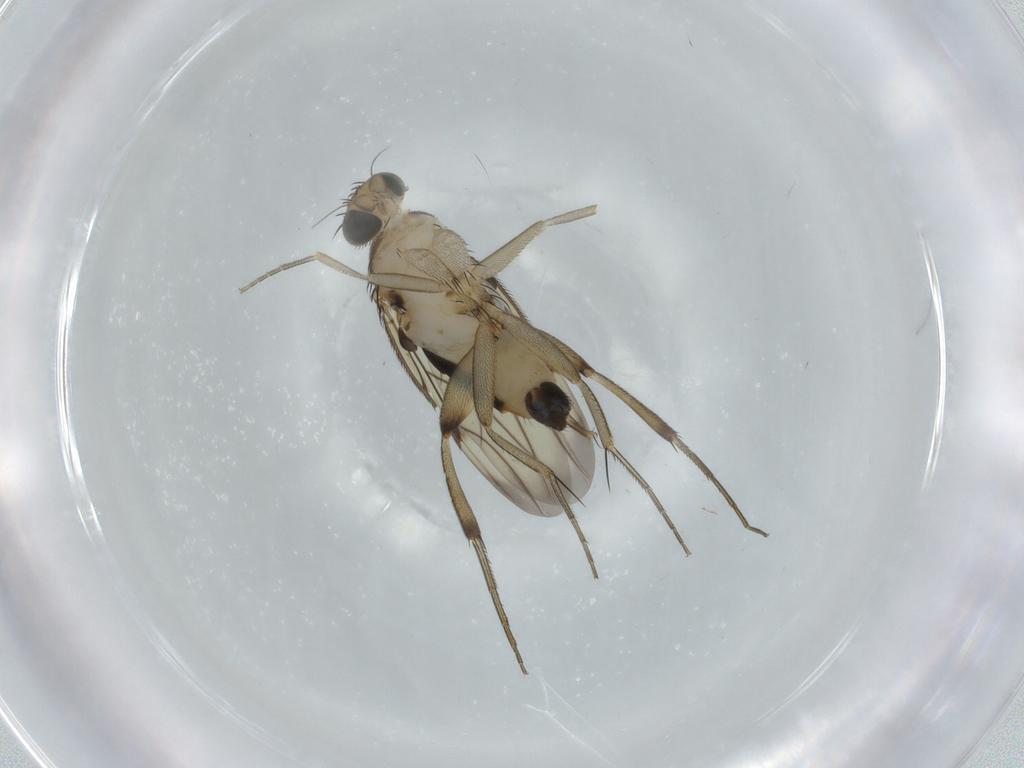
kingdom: Animalia
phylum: Arthropoda
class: Insecta
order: Diptera
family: Phoridae
